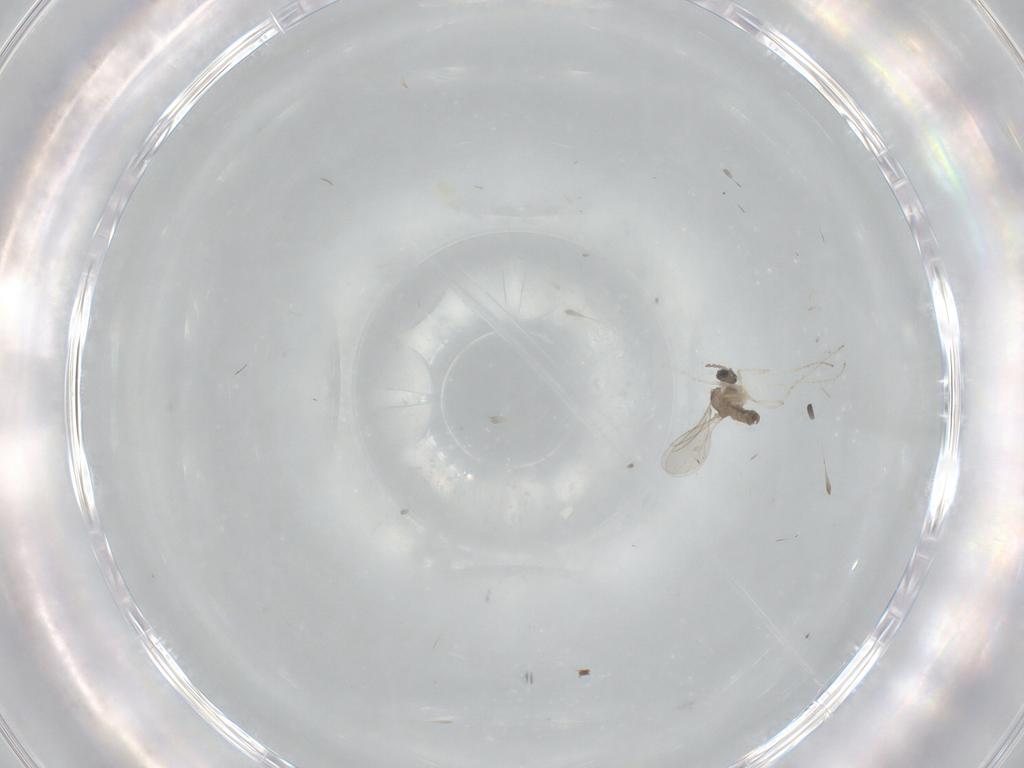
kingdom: Animalia
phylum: Arthropoda
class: Insecta
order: Diptera
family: Cecidomyiidae
